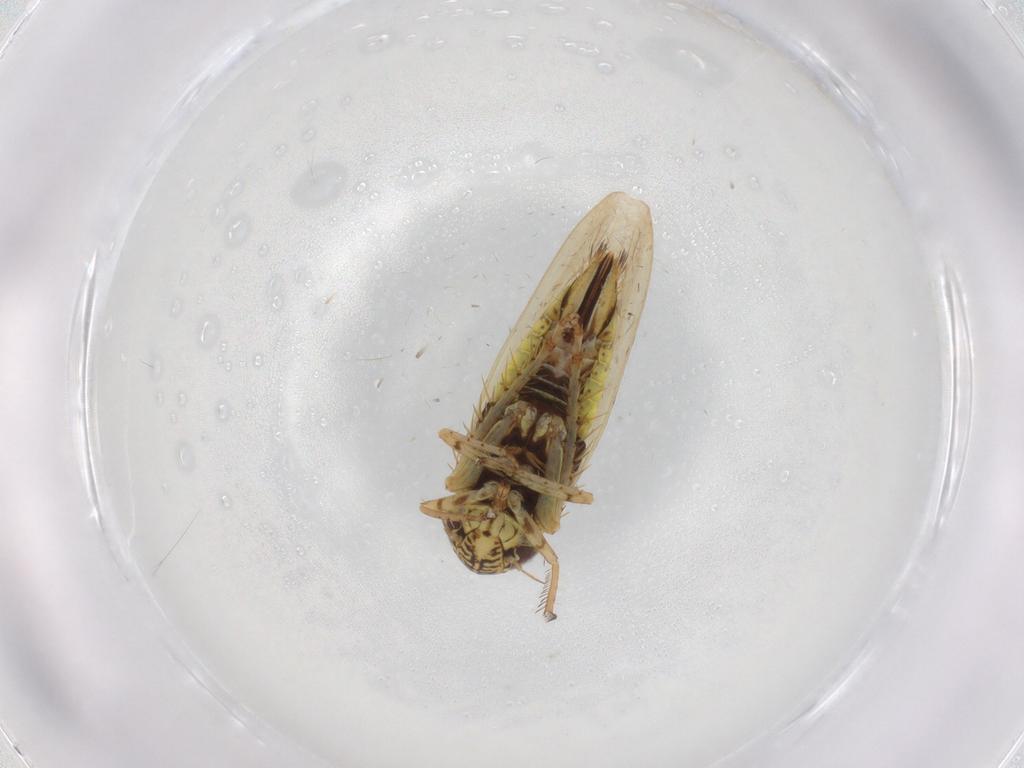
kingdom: Animalia
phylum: Arthropoda
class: Insecta
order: Hemiptera
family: Cicadellidae
